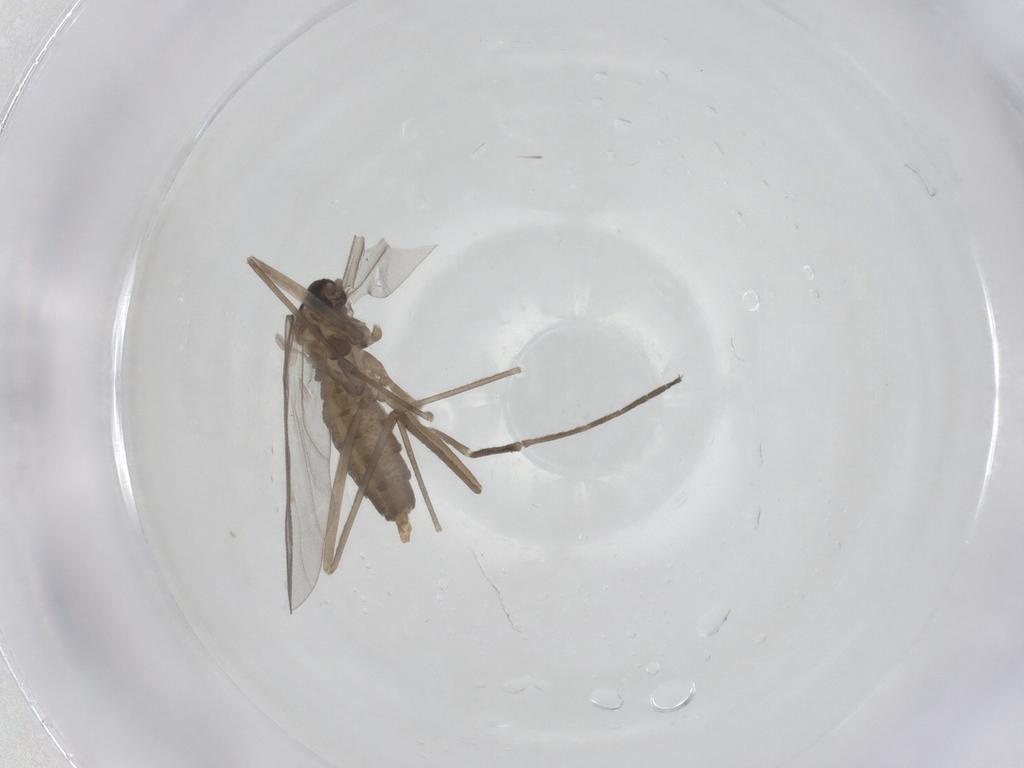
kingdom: Animalia
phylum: Arthropoda
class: Insecta
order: Diptera
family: Cecidomyiidae
